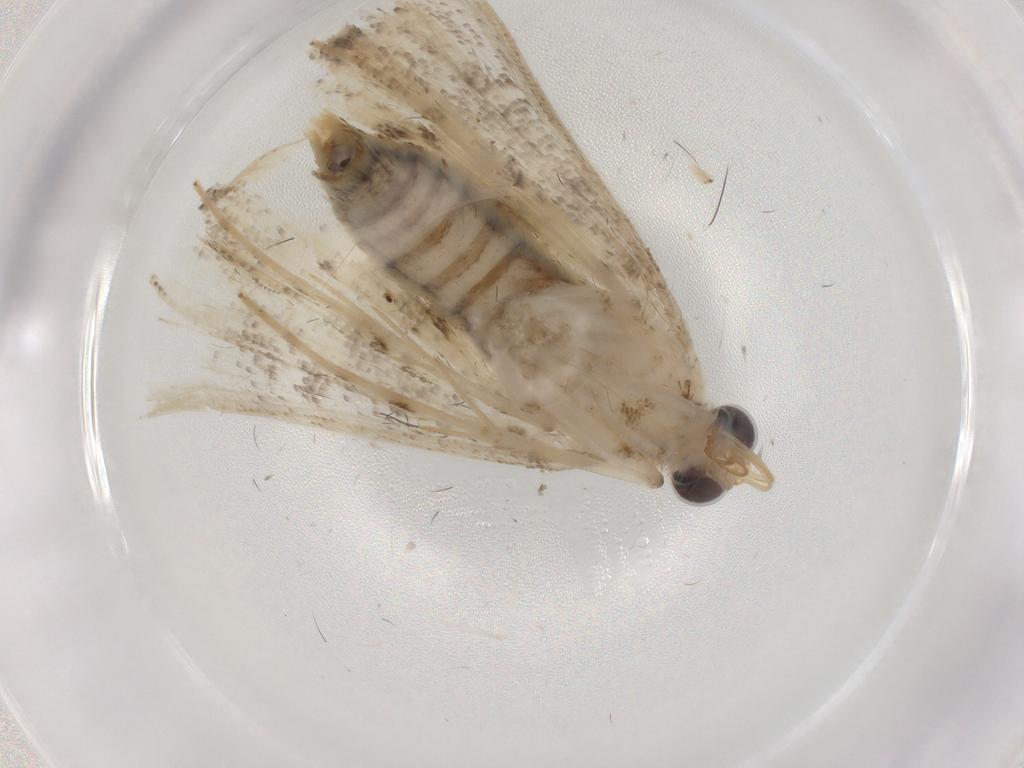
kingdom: Animalia
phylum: Arthropoda
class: Insecta
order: Lepidoptera
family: Crambidae
